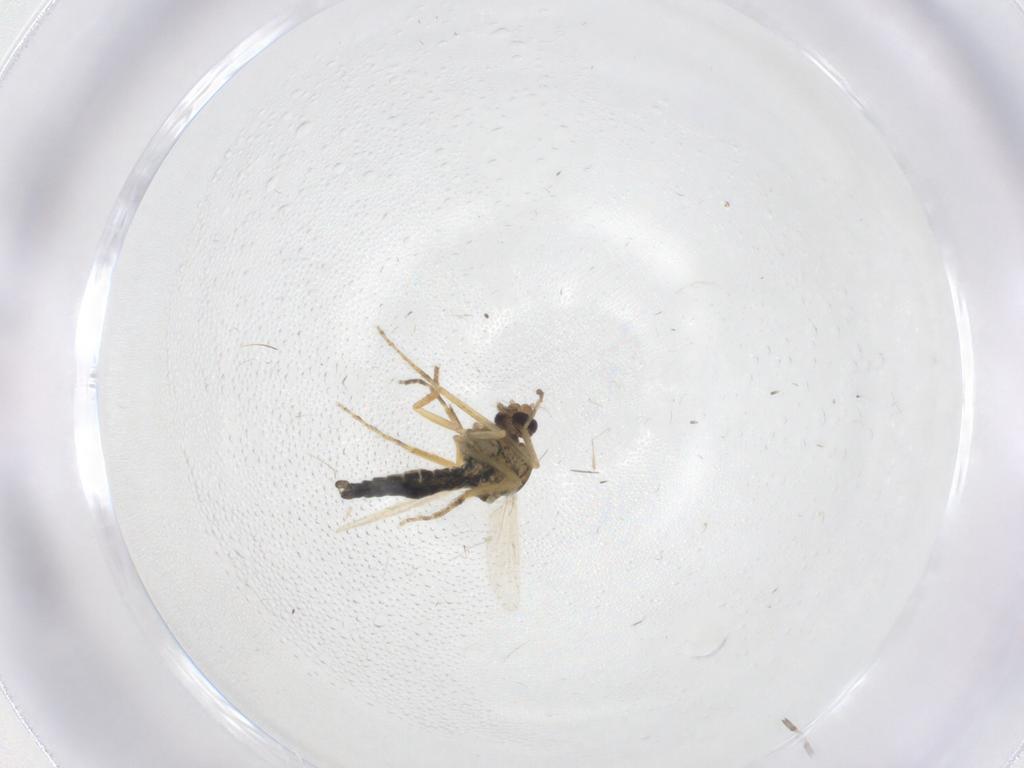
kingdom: Animalia
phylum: Arthropoda
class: Insecta
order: Diptera
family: Ceratopogonidae
